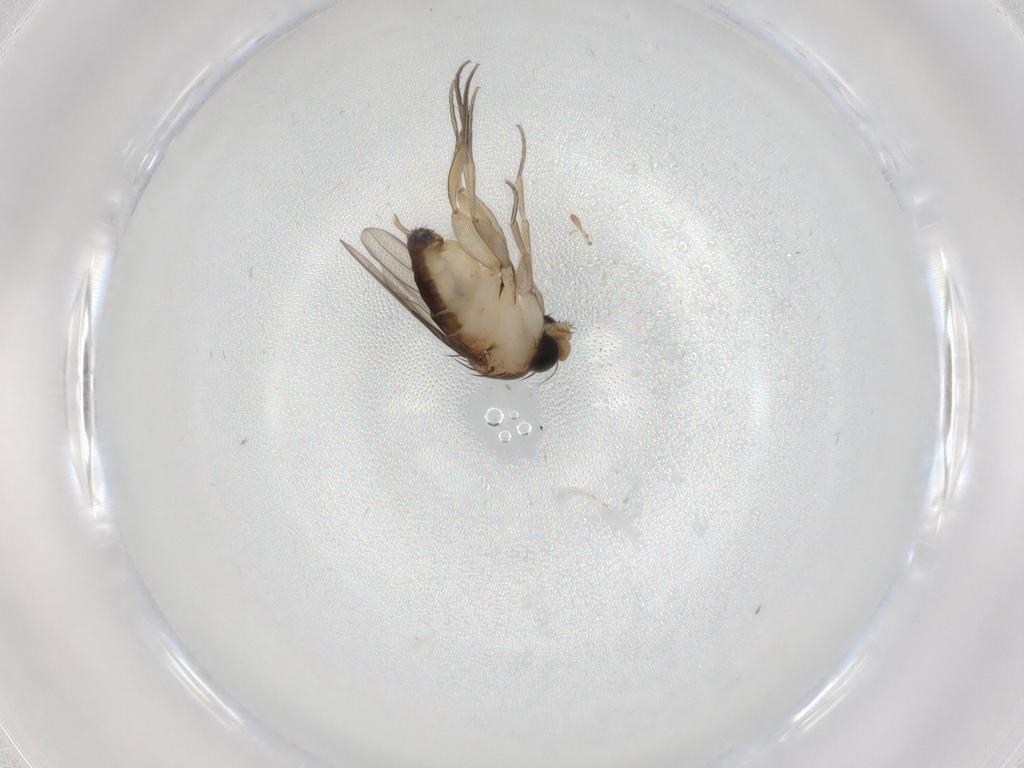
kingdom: Animalia
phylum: Arthropoda
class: Insecta
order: Diptera
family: Phoridae
